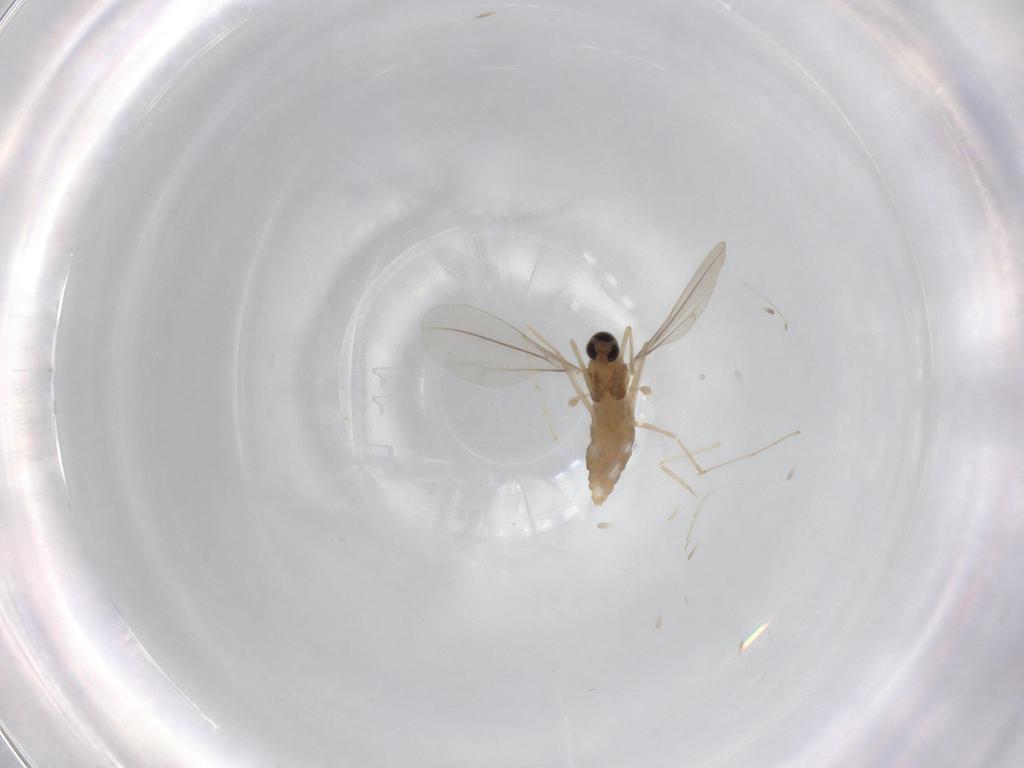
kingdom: Animalia
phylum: Arthropoda
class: Insecta
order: Diptera
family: Cecidomyiidae
